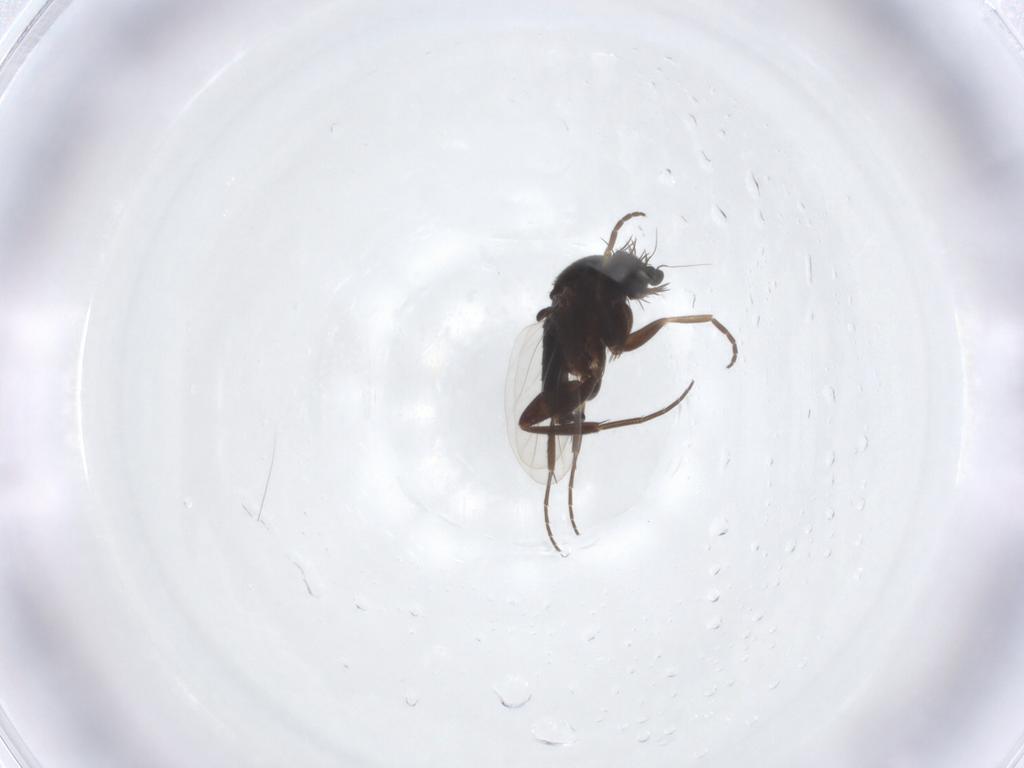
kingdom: Animalia
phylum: Arthropoda
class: Insecta
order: Diptera
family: Phoridae
